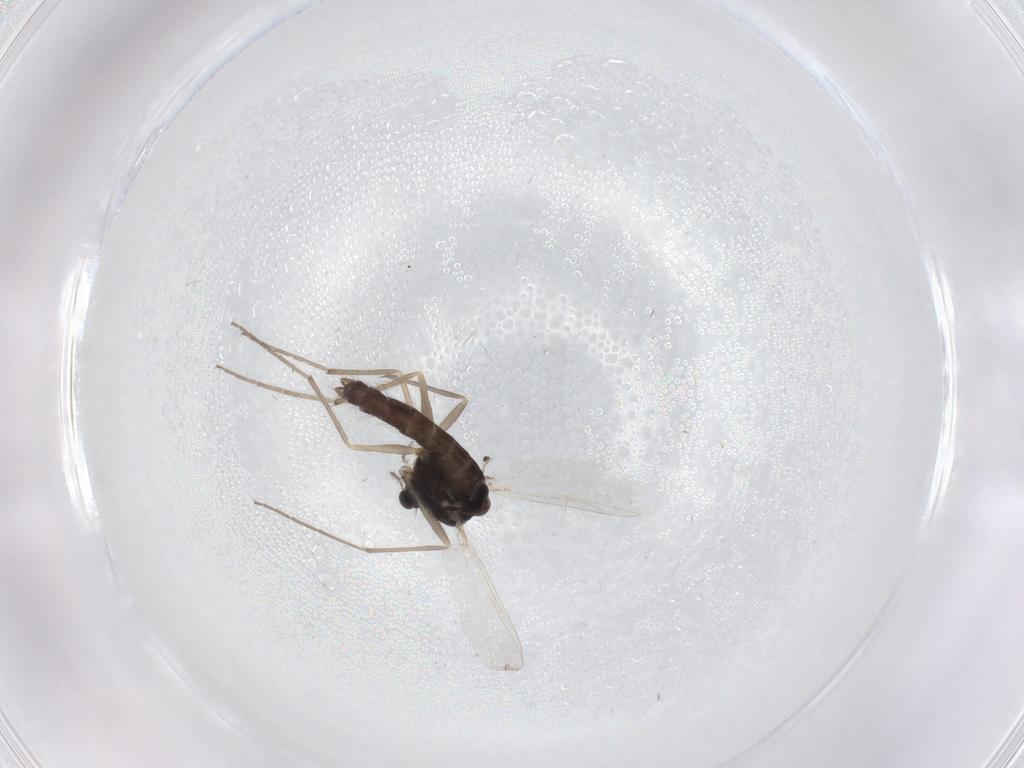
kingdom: Animalia
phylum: Arthropoda
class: Insecta
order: Diptera
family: Chironomidae
